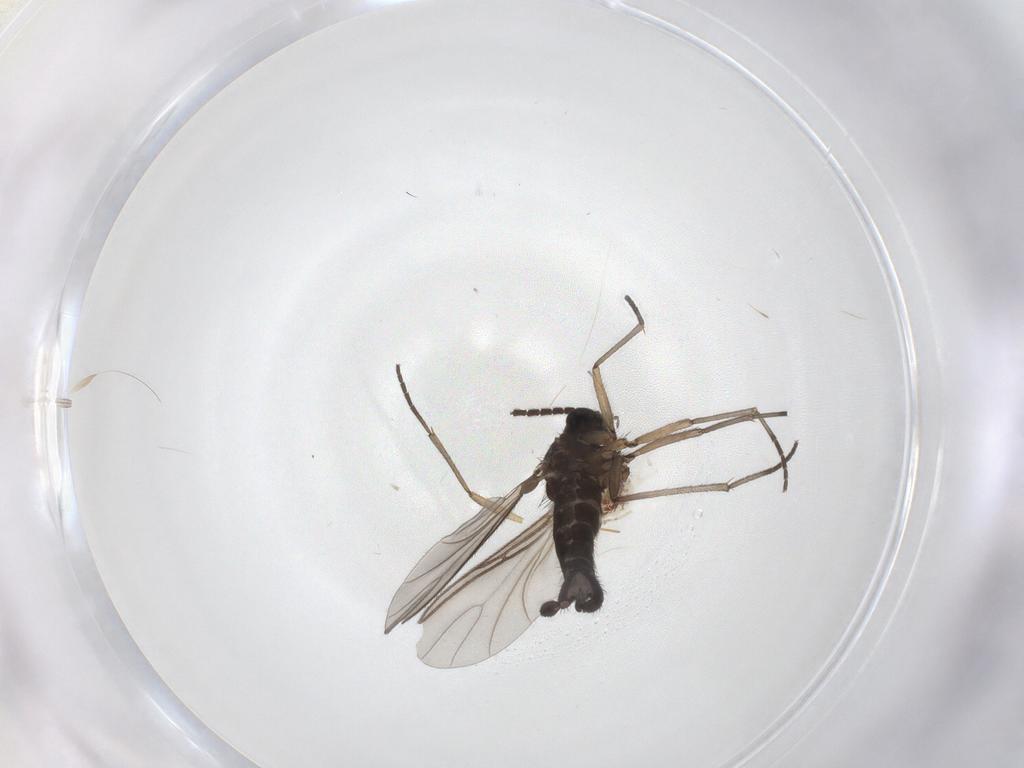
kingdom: Animalia
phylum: Arthropoda
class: Insecta
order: Diptera
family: Sciaridae
